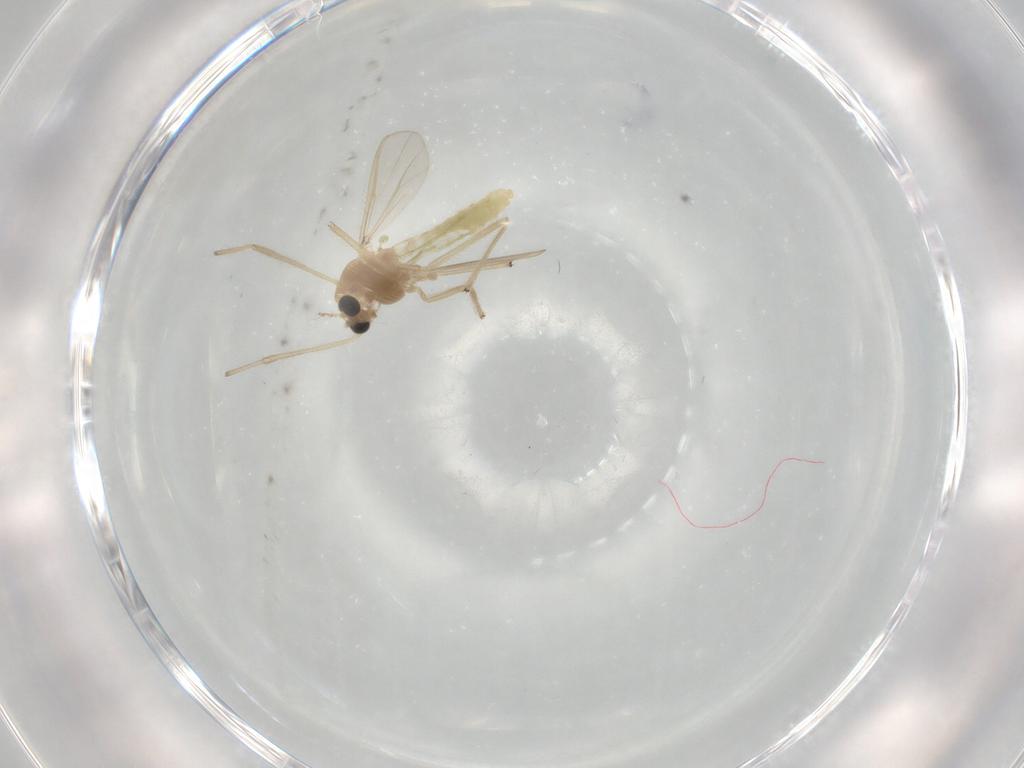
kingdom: Animalia
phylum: Arthropoda
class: Insecta
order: Diptera
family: Chironomidae
